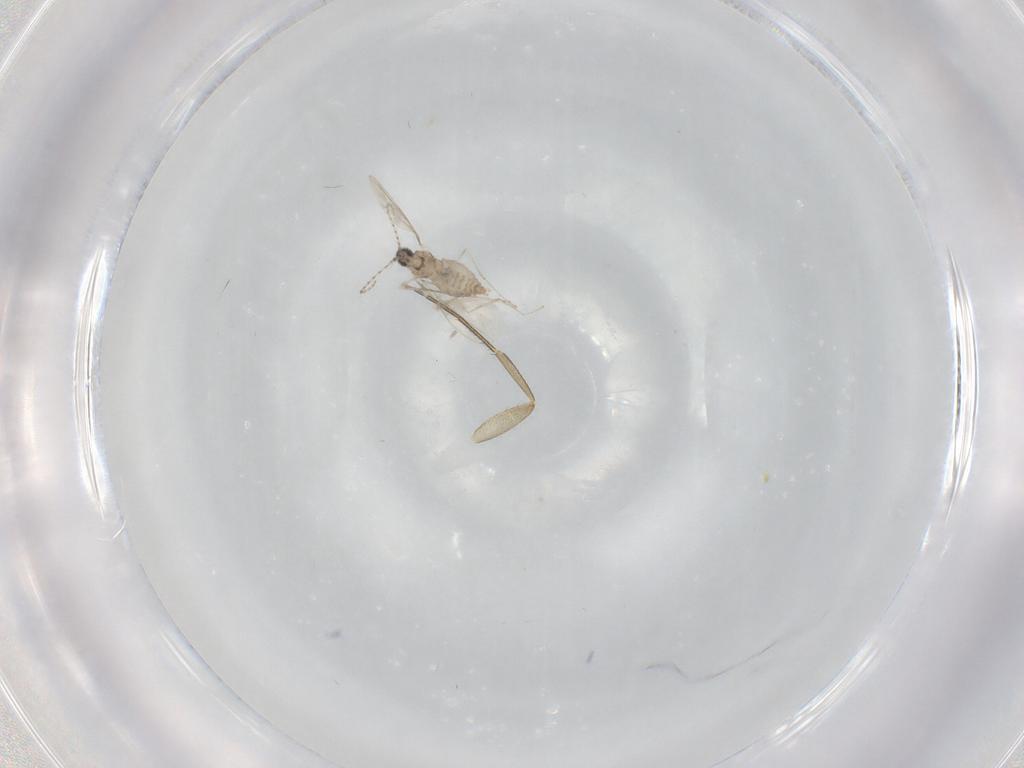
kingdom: Animalia
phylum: Arthropoda
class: Insecta
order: Diptera
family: Cecidomyiidae
